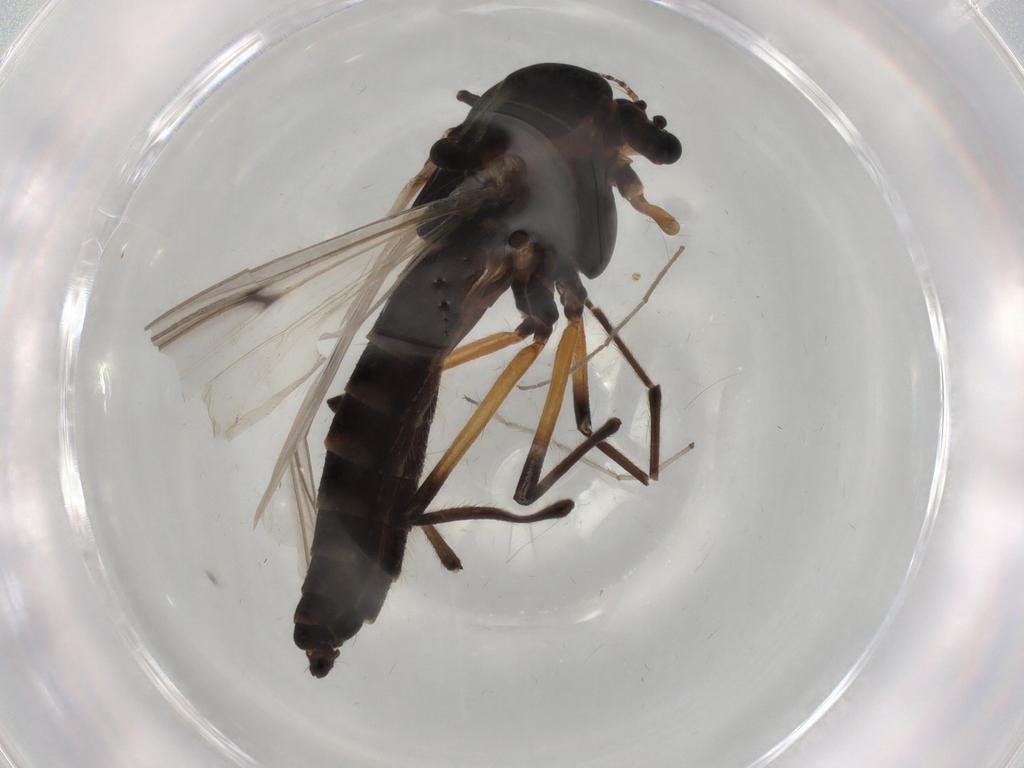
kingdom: Animalia
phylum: Arthropoda
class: Insecta
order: Diptera
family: Chironomidae
